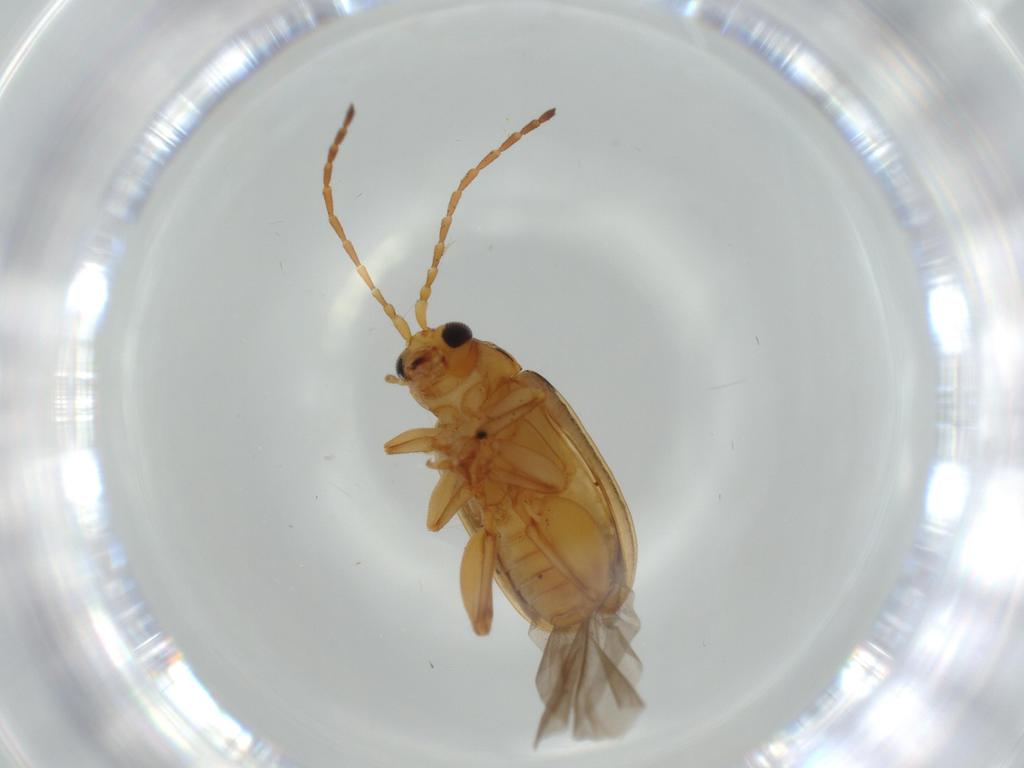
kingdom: Animalia
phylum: Arthropoda
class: Insecta
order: Coleoptera
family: Chrysomelidae
